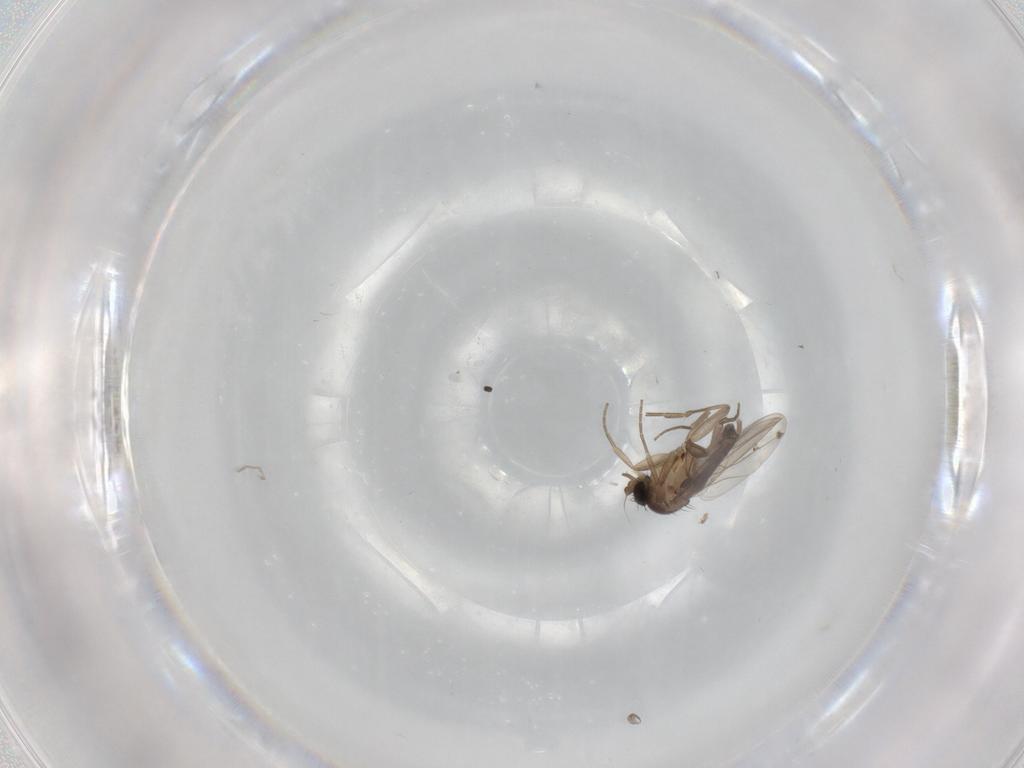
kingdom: Animalia
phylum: Arthropoda
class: Insecta
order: Diptera
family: Phoridae
